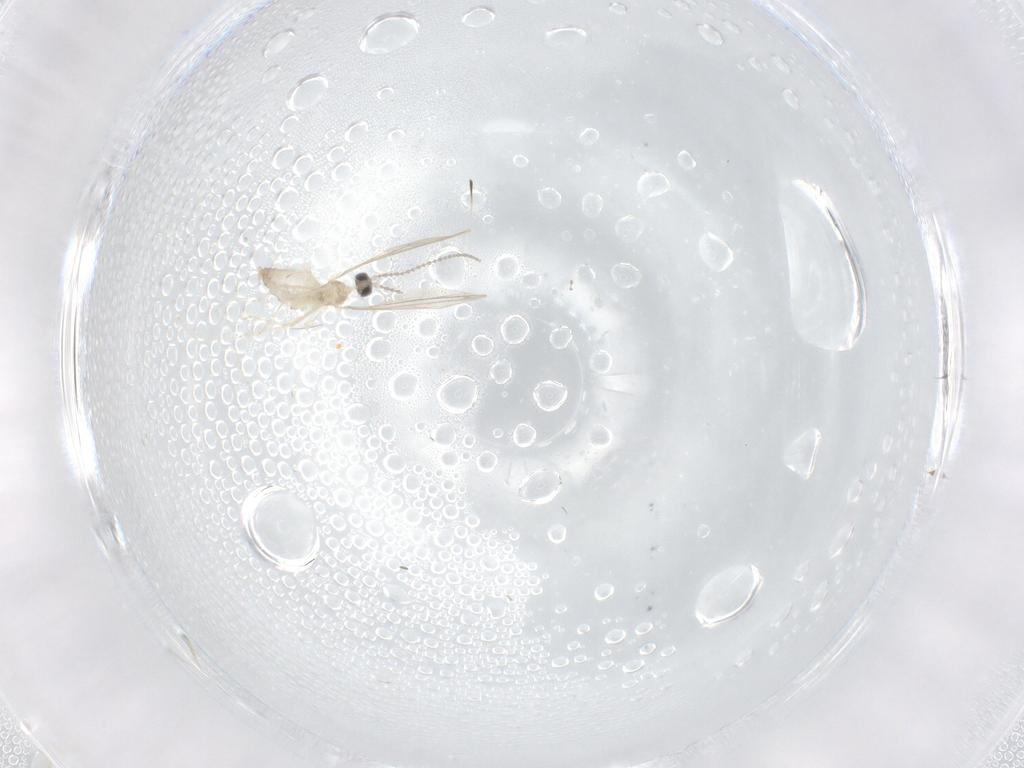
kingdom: Animalia
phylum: Arthropoda
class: Insecta
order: Diptera
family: Cecidomyiidae
